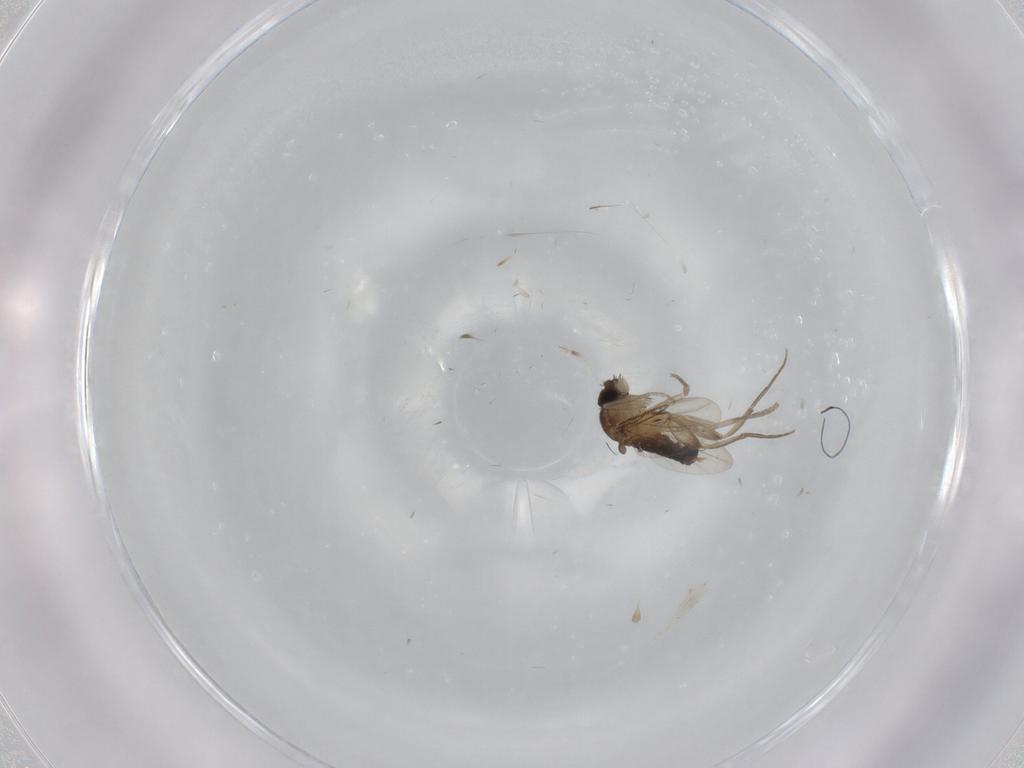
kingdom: Animalia
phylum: Arthropoda
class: Insecta
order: Diptera
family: Phoridae
